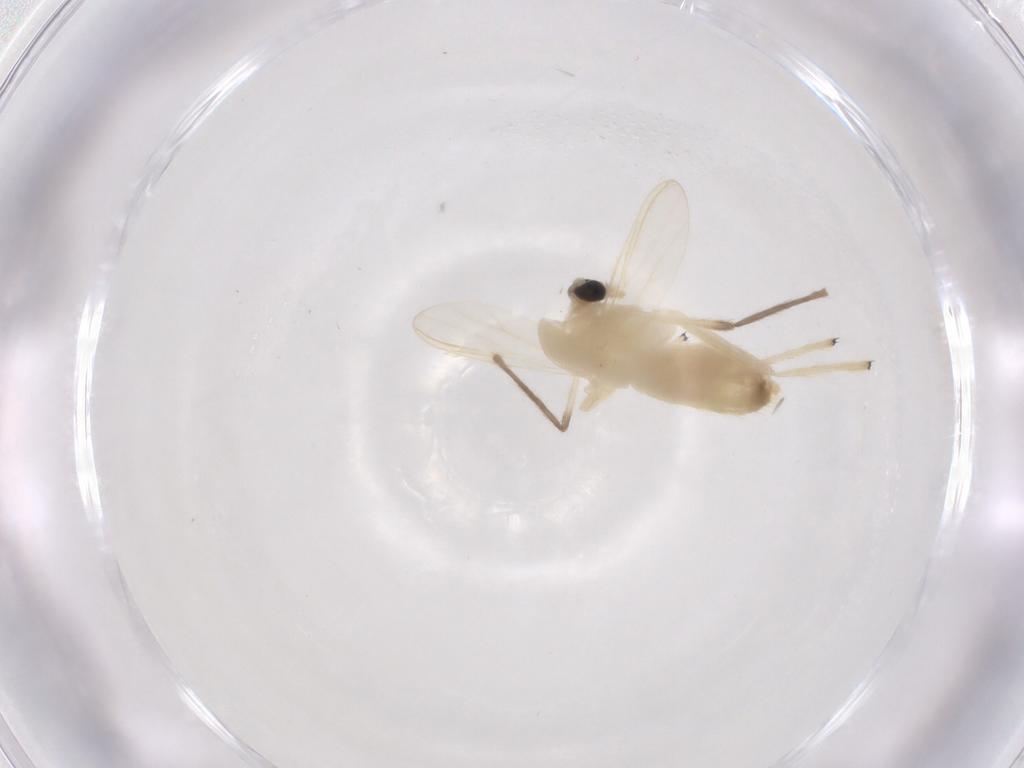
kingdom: Animalia
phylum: Arthropoda
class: Insecta
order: Diptera
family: Chironomidae
